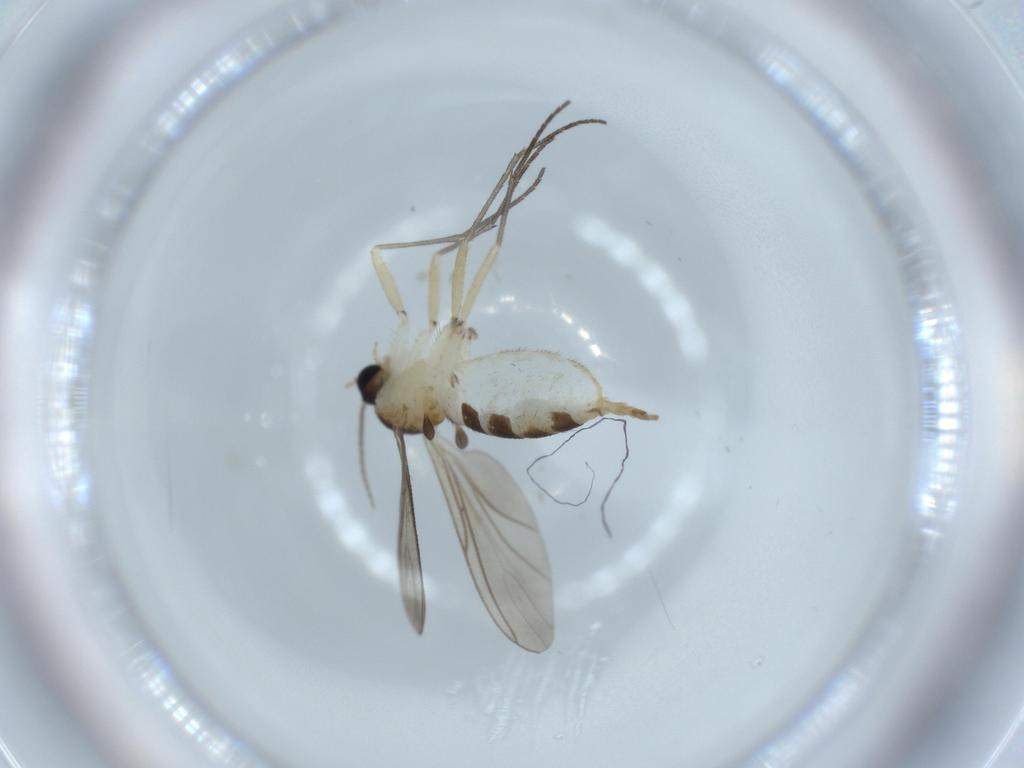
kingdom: Animalia
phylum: Arthropoda
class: Insecta
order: Diptera
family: Sciaridae
